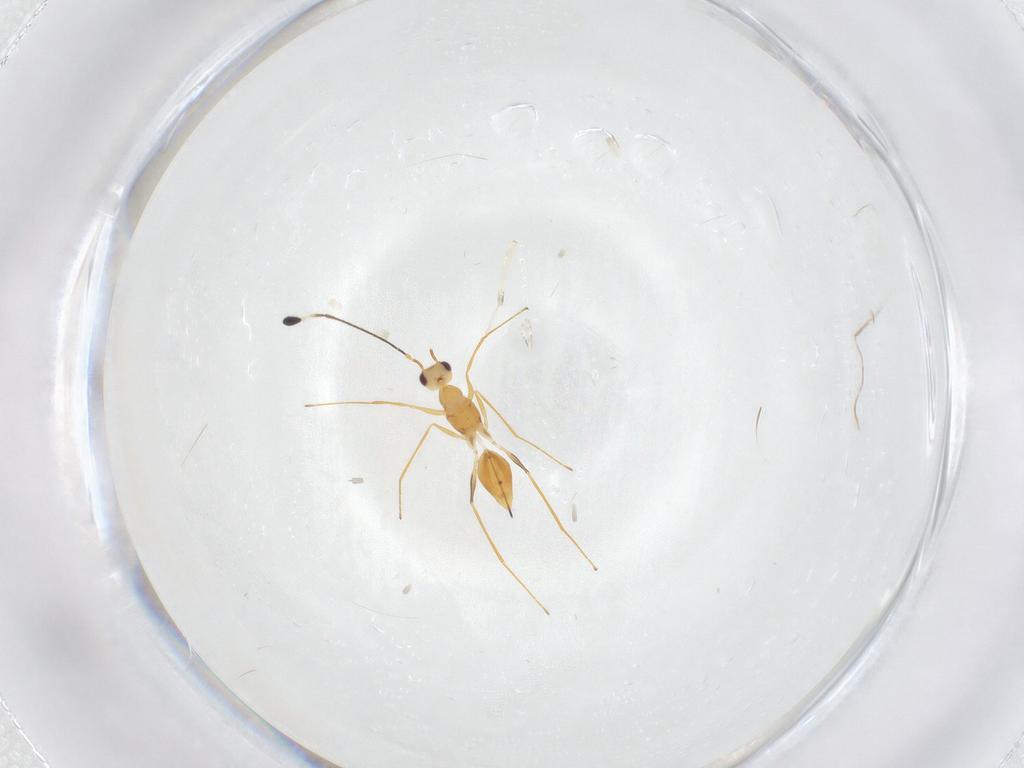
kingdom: Animalia
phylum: Arthropoda
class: Insecta
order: Hymenoptera
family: Mymaridae
